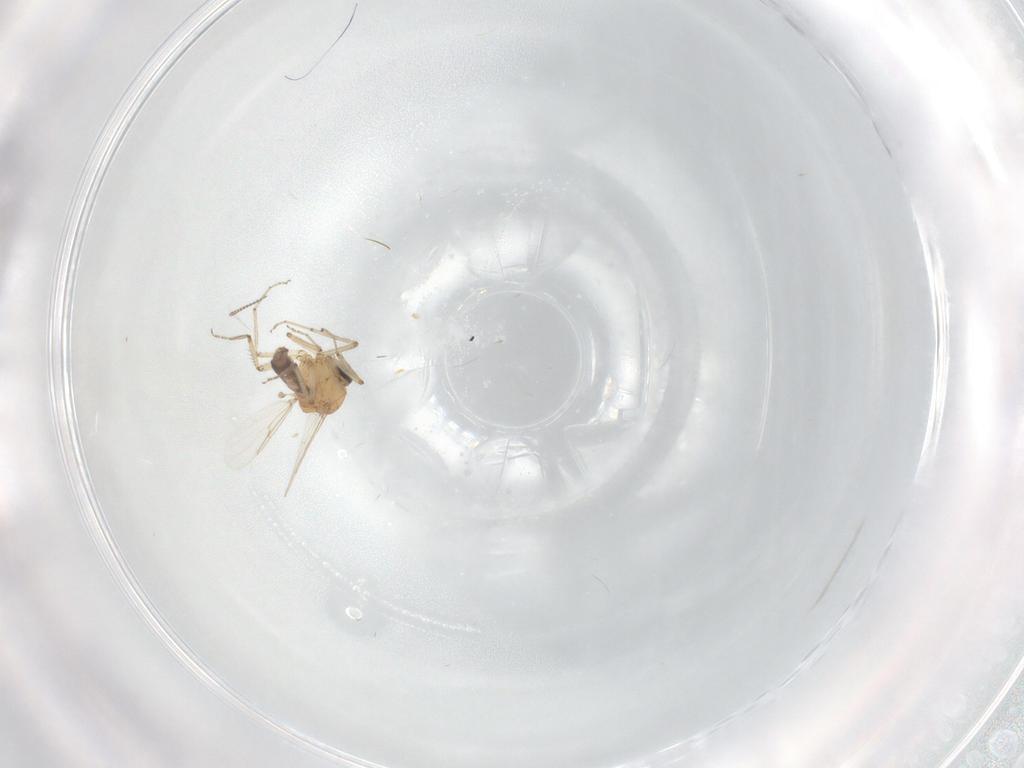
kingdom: Animalia
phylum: Arthropoda
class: Insecta
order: Diptera
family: Ceratopogonidae
